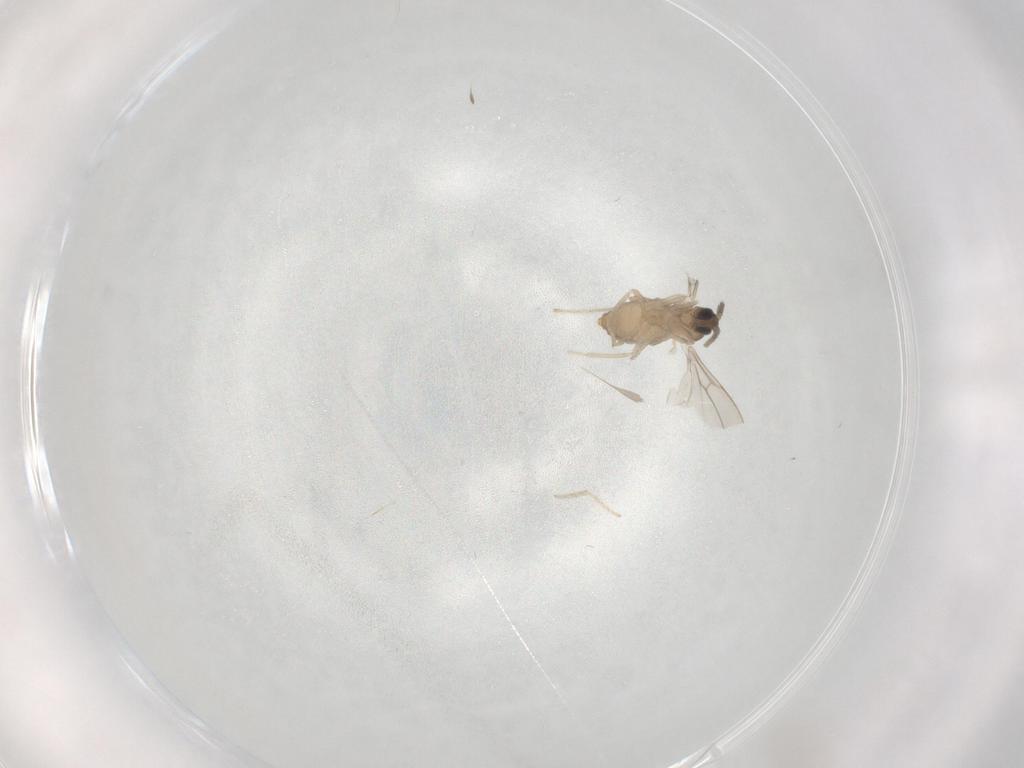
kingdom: Animalia
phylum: Arthropoda
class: Insecta
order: Diptera
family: Cecidomyiidae
